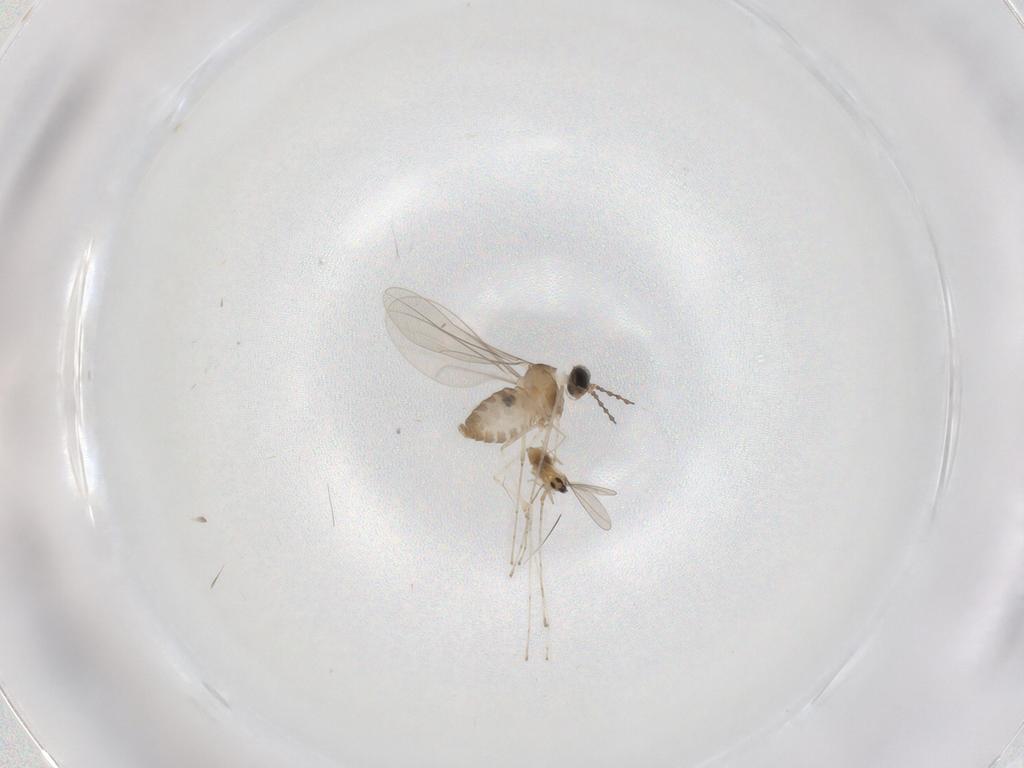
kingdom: Animalia
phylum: Arthropoda
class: Insecta
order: Diptera
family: Cecidomyiidae
